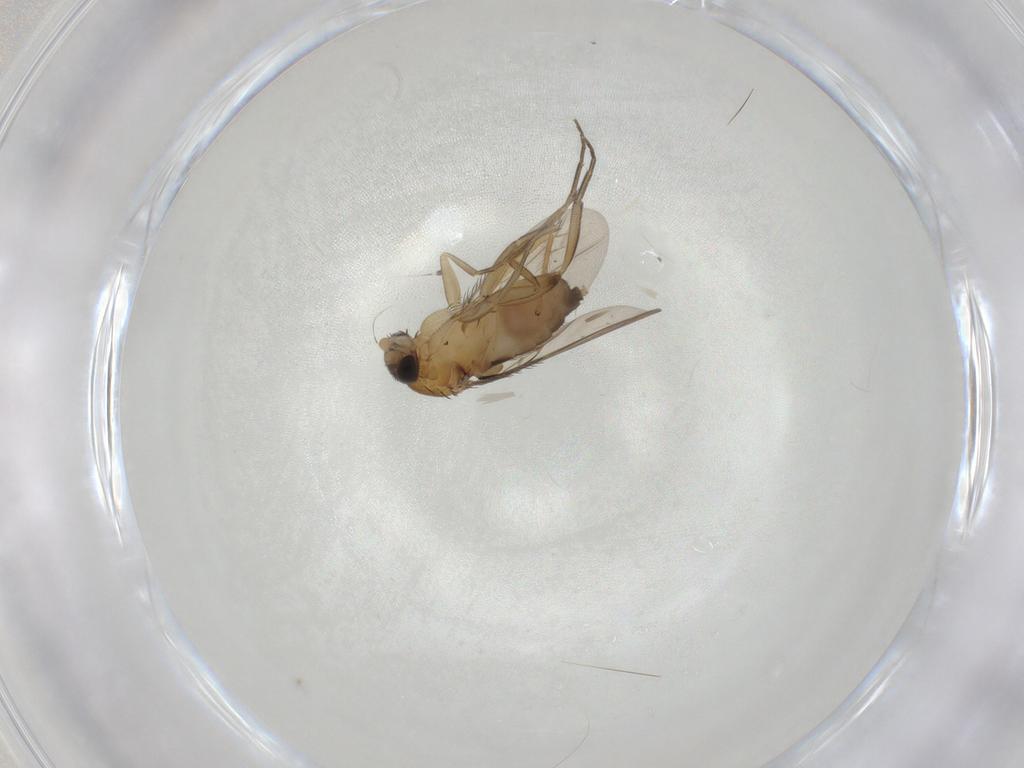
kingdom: Animalia
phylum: Arthropoda
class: Insecta
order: Diptera
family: Phoridae
